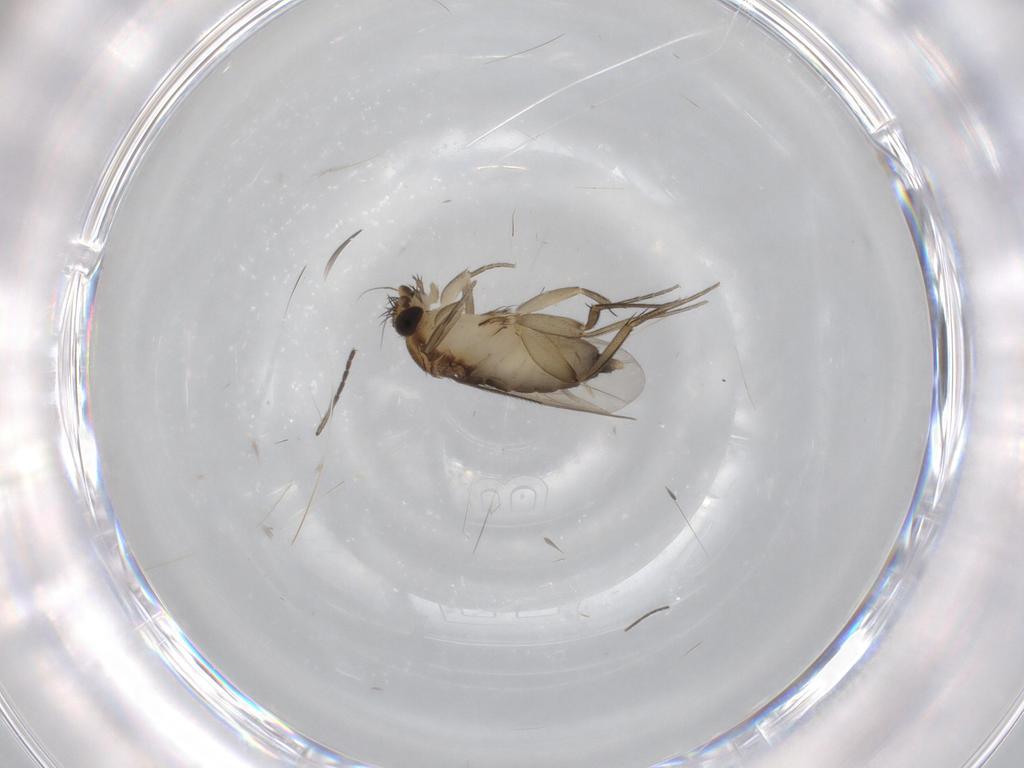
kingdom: Animalia
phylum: Arthropoda
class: Insecta
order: Diptera
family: Phoridae
